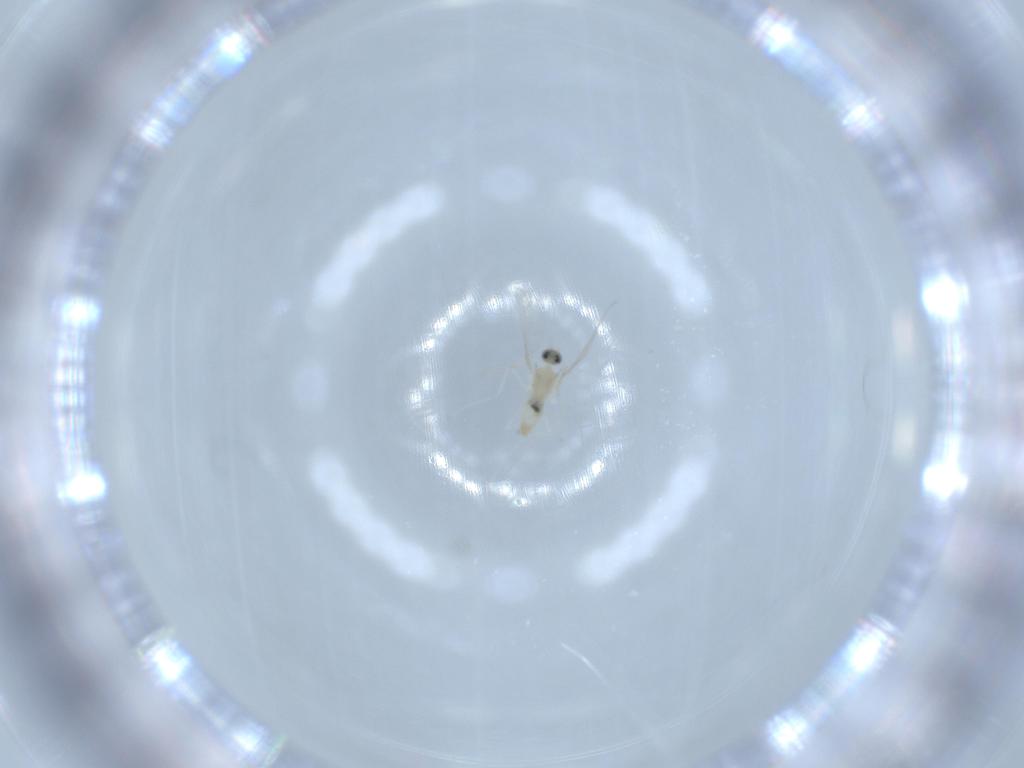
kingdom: Animalia
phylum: Arthropoda
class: Insecta
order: Diptera
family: Cecidomyiidae
